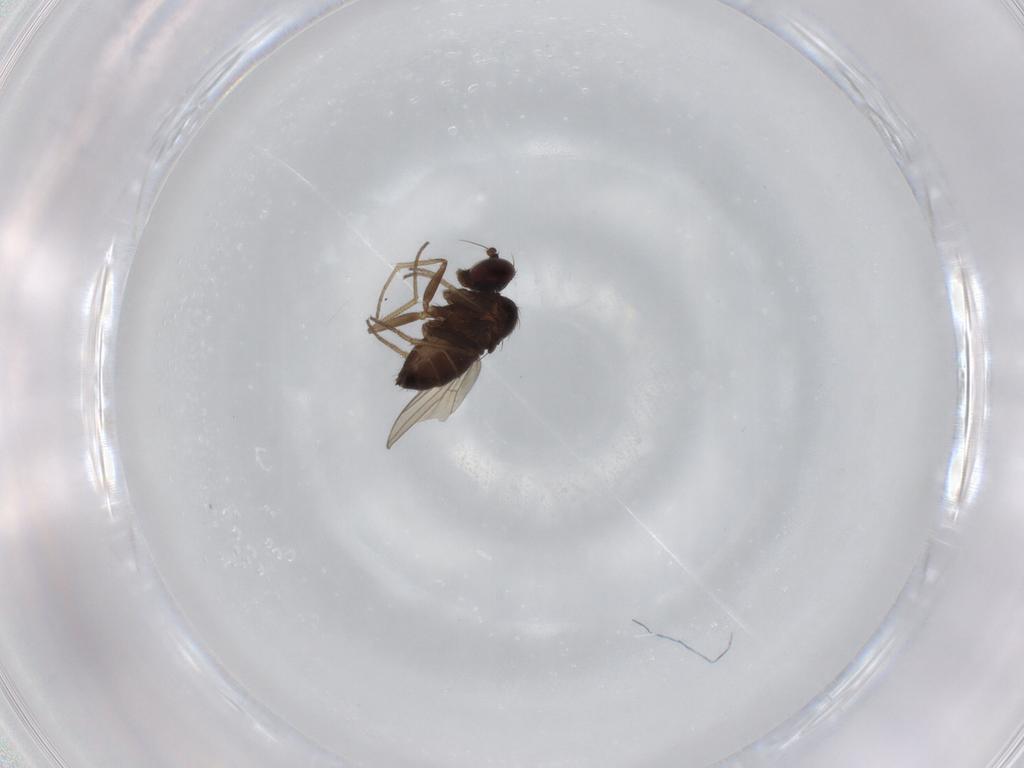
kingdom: Animalia
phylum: Arthropoda
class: Insecta
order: Diptera
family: Dolichopodidae
